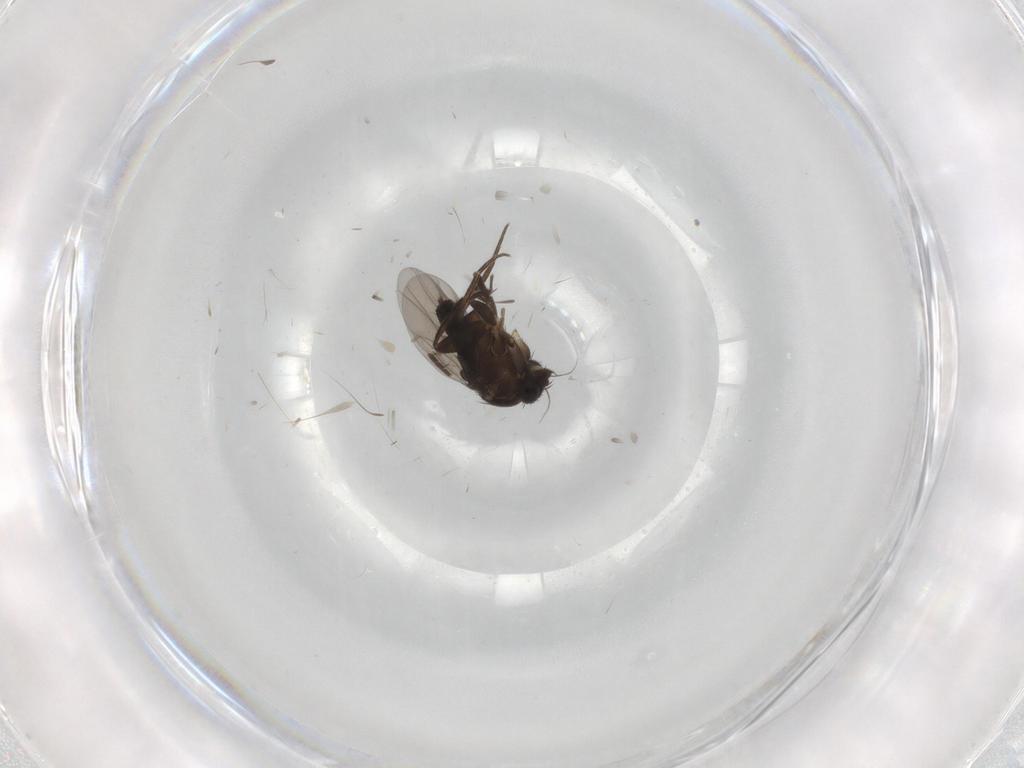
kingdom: Animalia
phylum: Arthropoda
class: Insecta
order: Diptera
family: Phoridae
